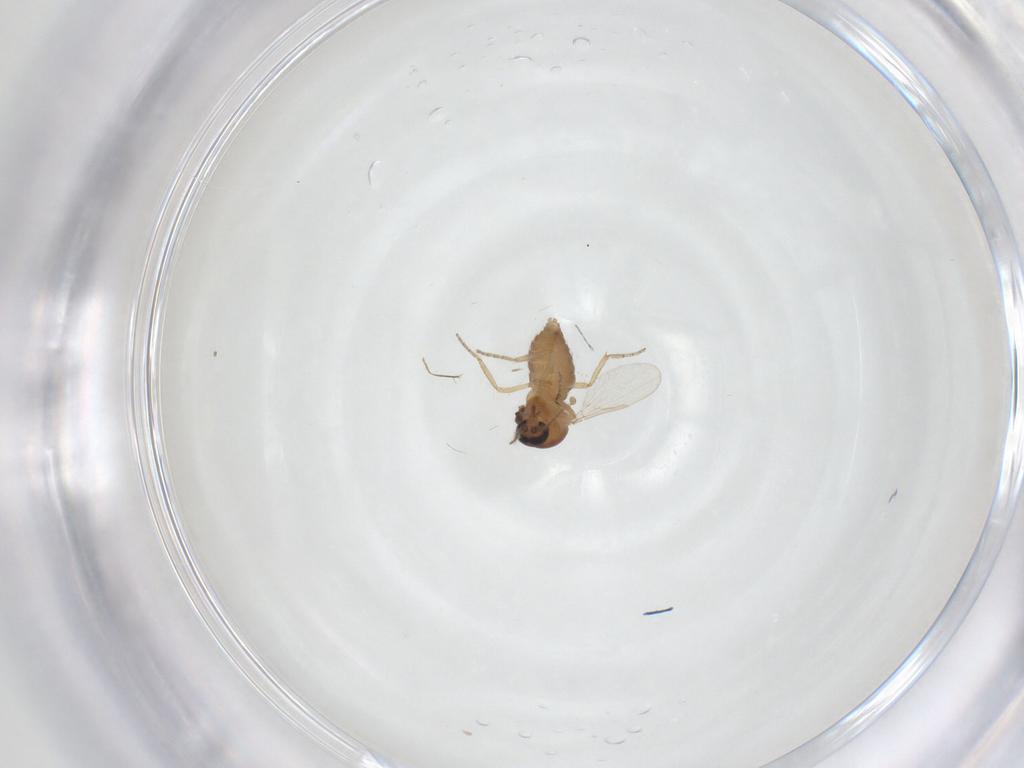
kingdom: Animalia
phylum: Arthropoda
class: Insecta
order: Diptera
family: Ceratopogonidae
